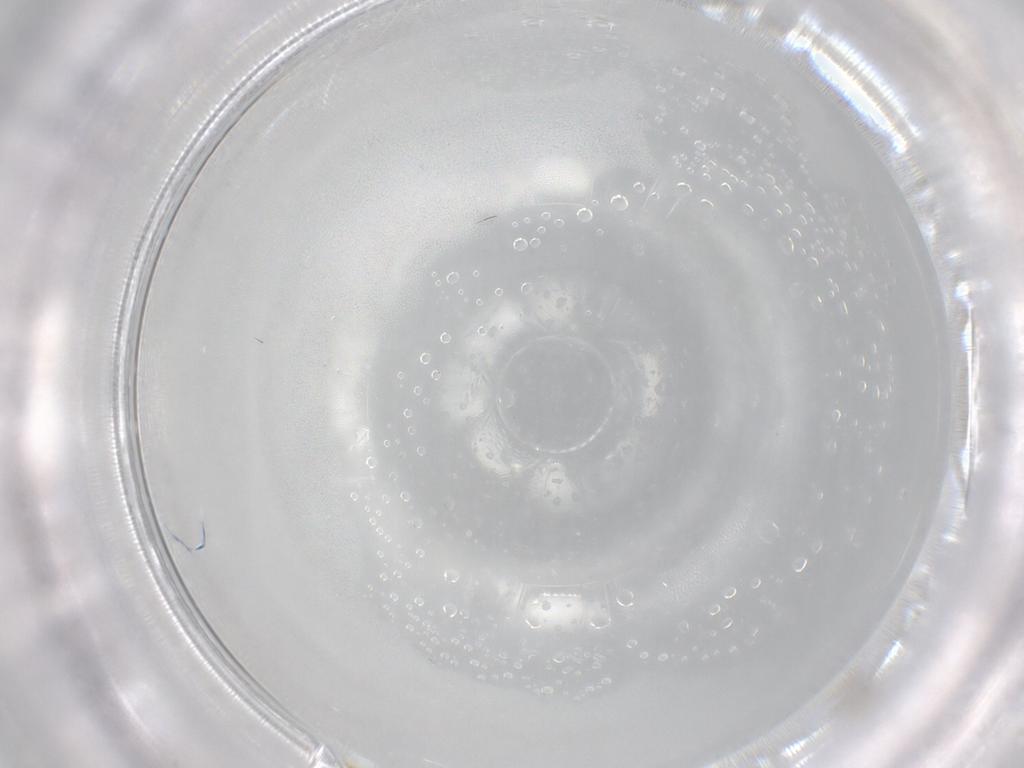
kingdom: Animalia
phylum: Arthropoda
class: Insecta
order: Hymenoptera
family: Mymaridae
